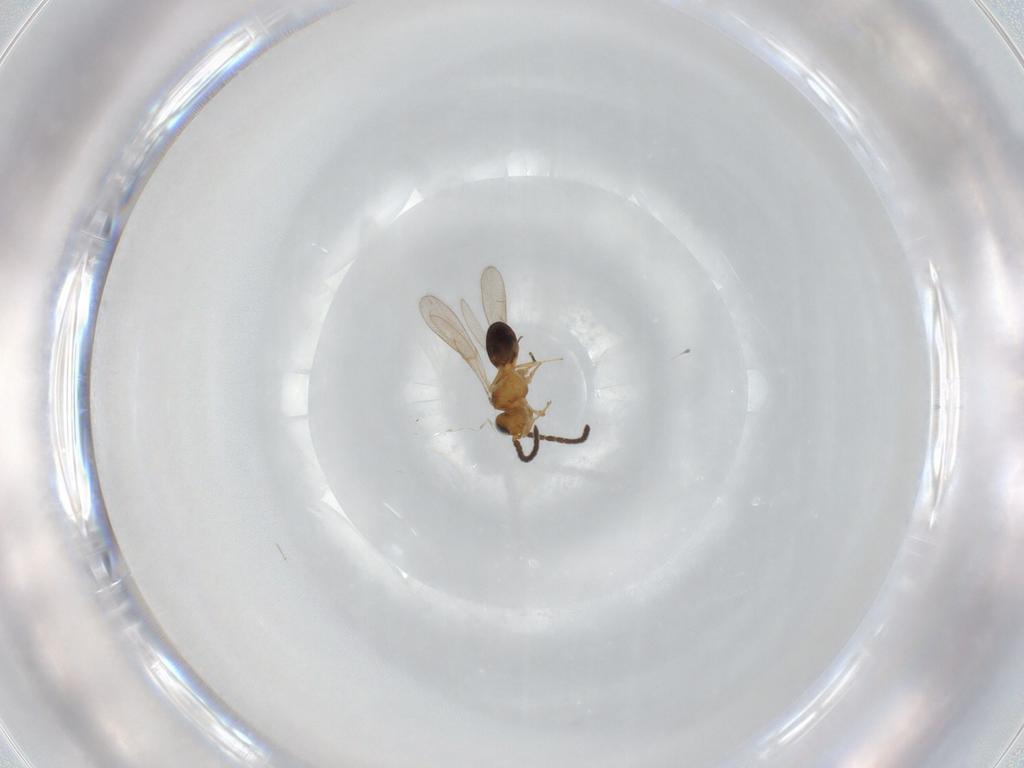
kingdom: Animalia
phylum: Arthropoda
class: Insecta
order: Hymenoptera
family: Scelionidae
